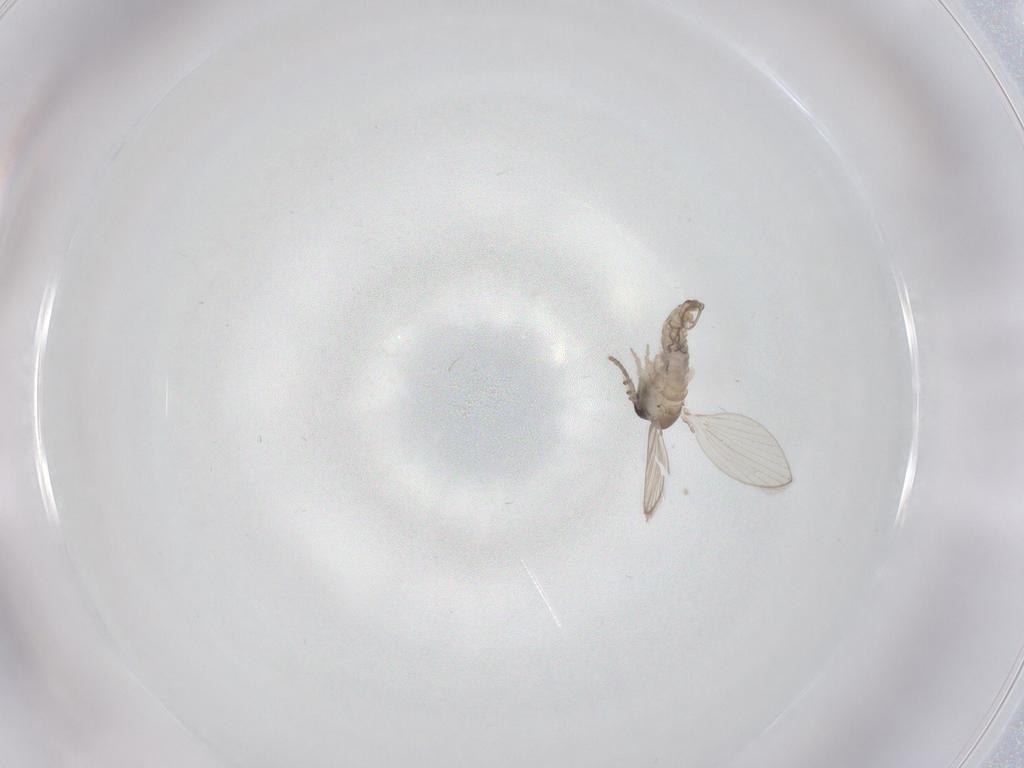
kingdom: Animalia
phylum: Arthropoda
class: Insecta
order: Diptera
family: Psychodidae
